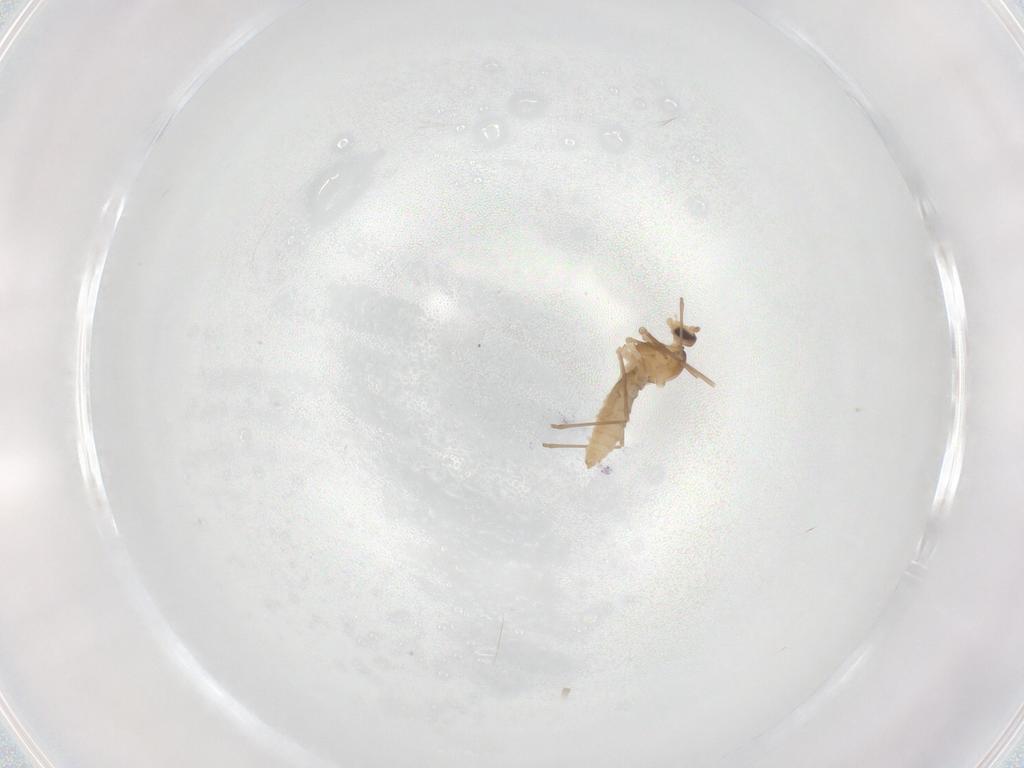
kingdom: Animalia
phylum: Arthropoda
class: Insecta
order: Diptera
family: Cecidomyiidae
